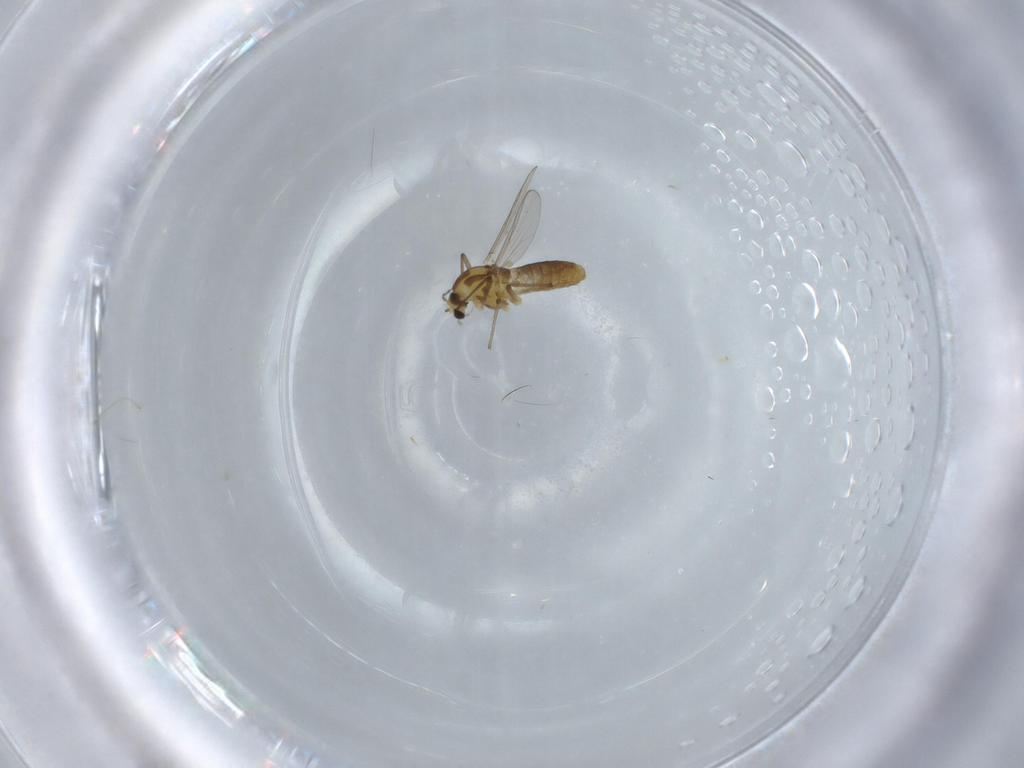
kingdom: Animalia
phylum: Arthropoda
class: Insecta
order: Diptera
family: Chironomidae
